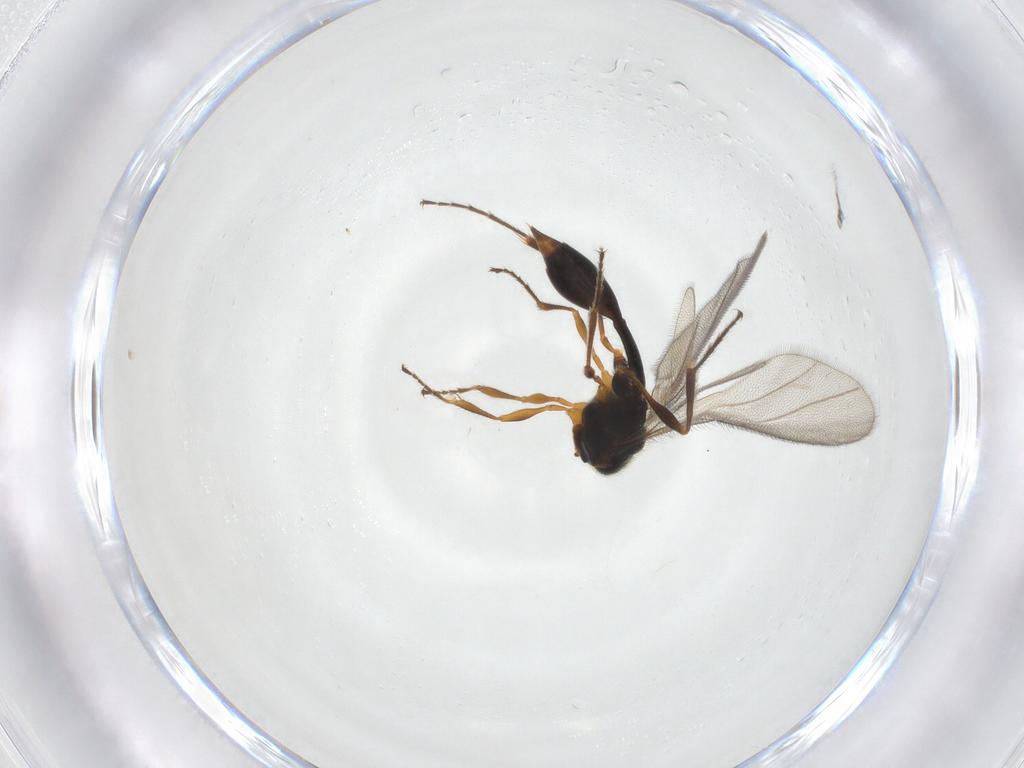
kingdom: Animalia
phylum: Arthropoda
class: Insecta
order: Hymenoptera
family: Diapriidae
